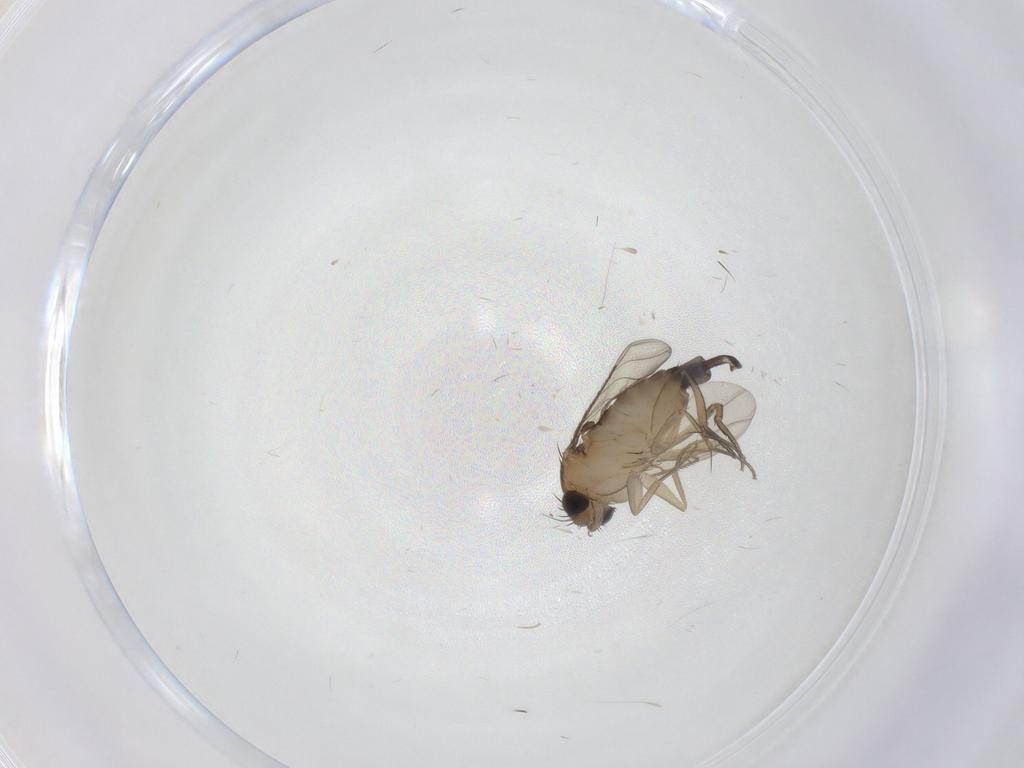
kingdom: Animalia
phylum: Arthropoda
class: Insecta
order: Diptera
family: Phoridae
